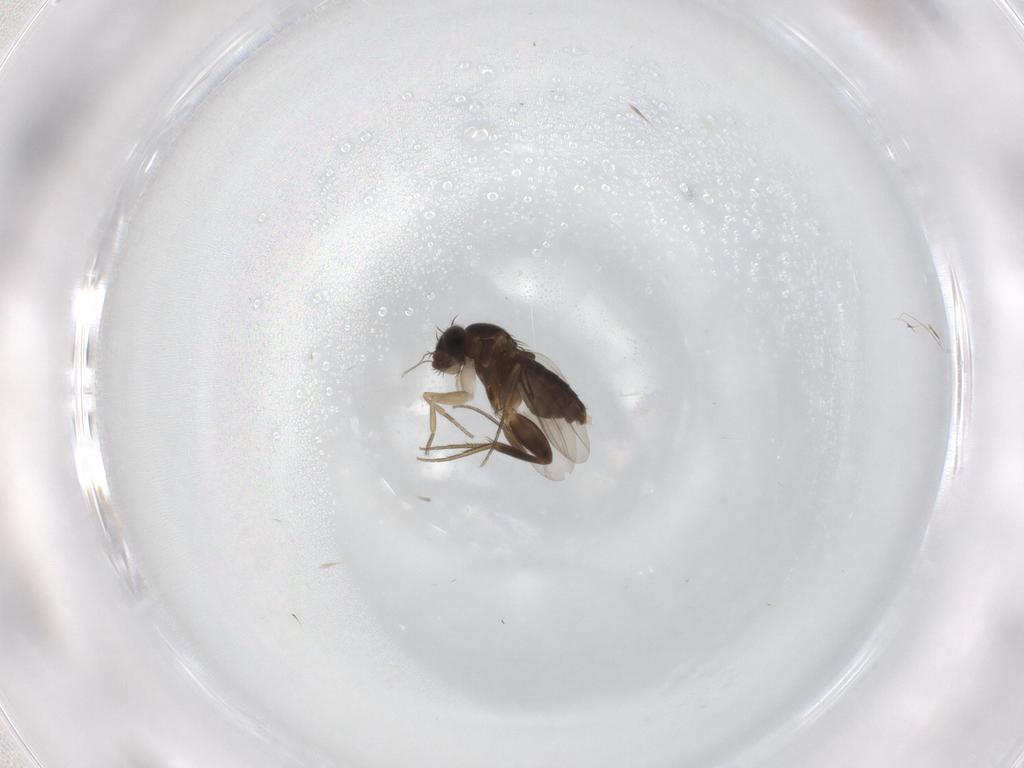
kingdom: Animalia
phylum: Arthropoda
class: Insecta
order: Diptera
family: Phoridae
